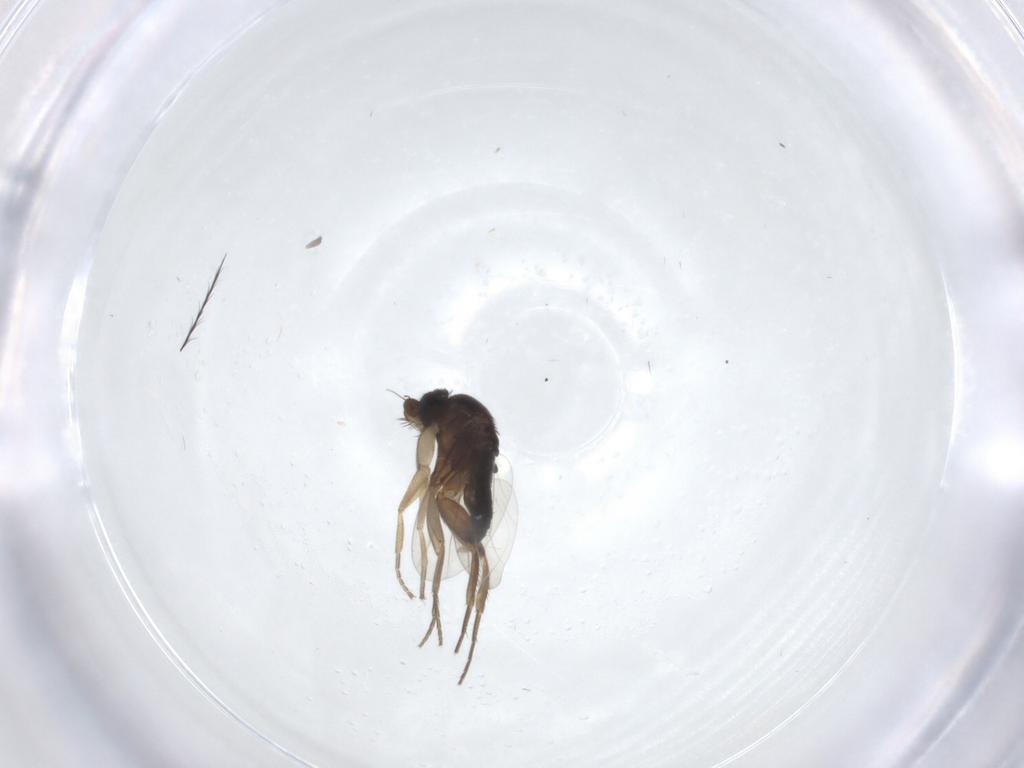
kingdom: Animalia
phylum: Arthropoda
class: Insecta
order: Diptera
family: Phoridae
